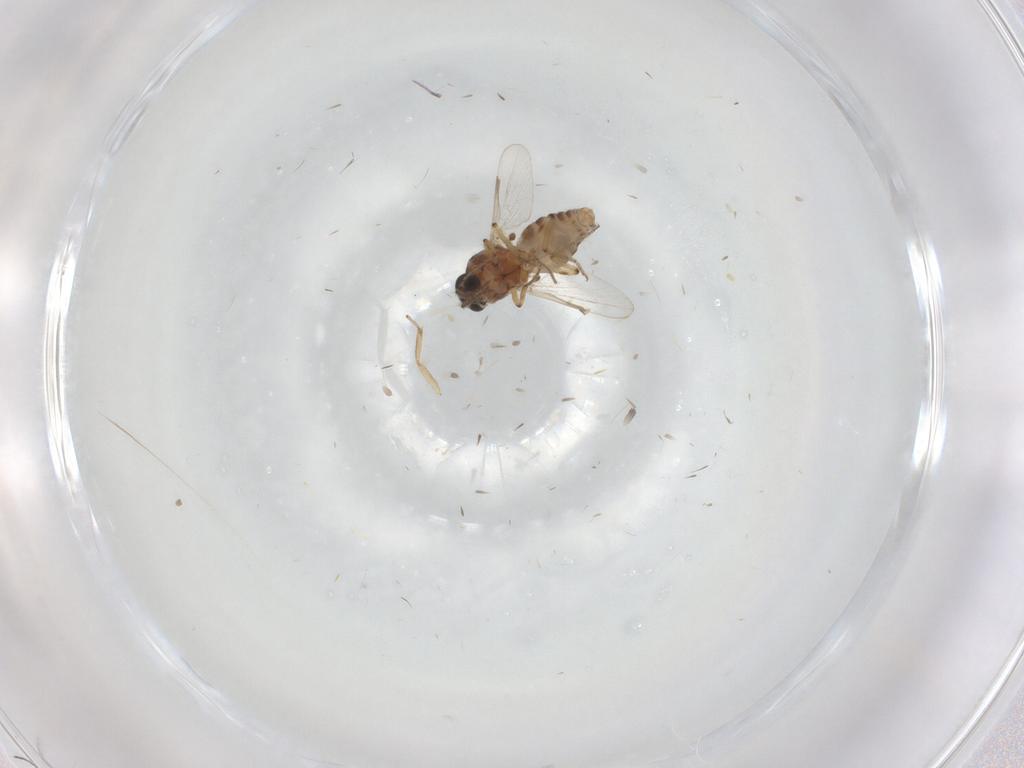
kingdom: Animalia
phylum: Arthropoda
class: Insecta
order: Diptera
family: Ceratopogonidae
